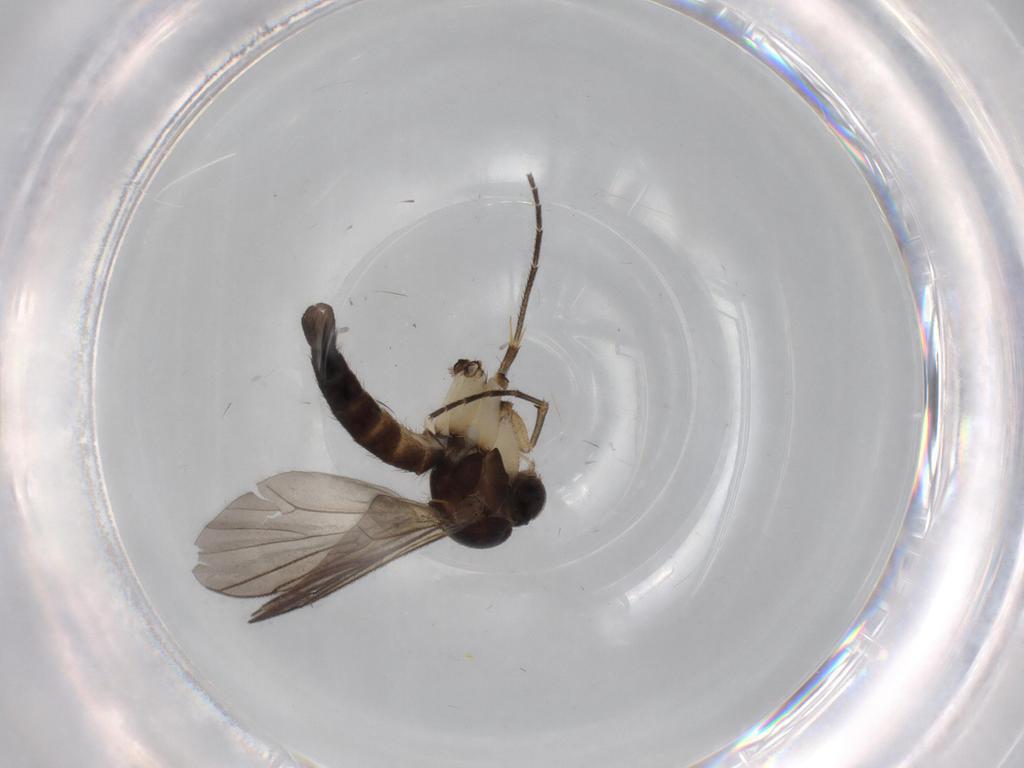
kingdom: Animalia
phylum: Arthropoda
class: Insecta
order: Diptera
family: Mycetophilidae
